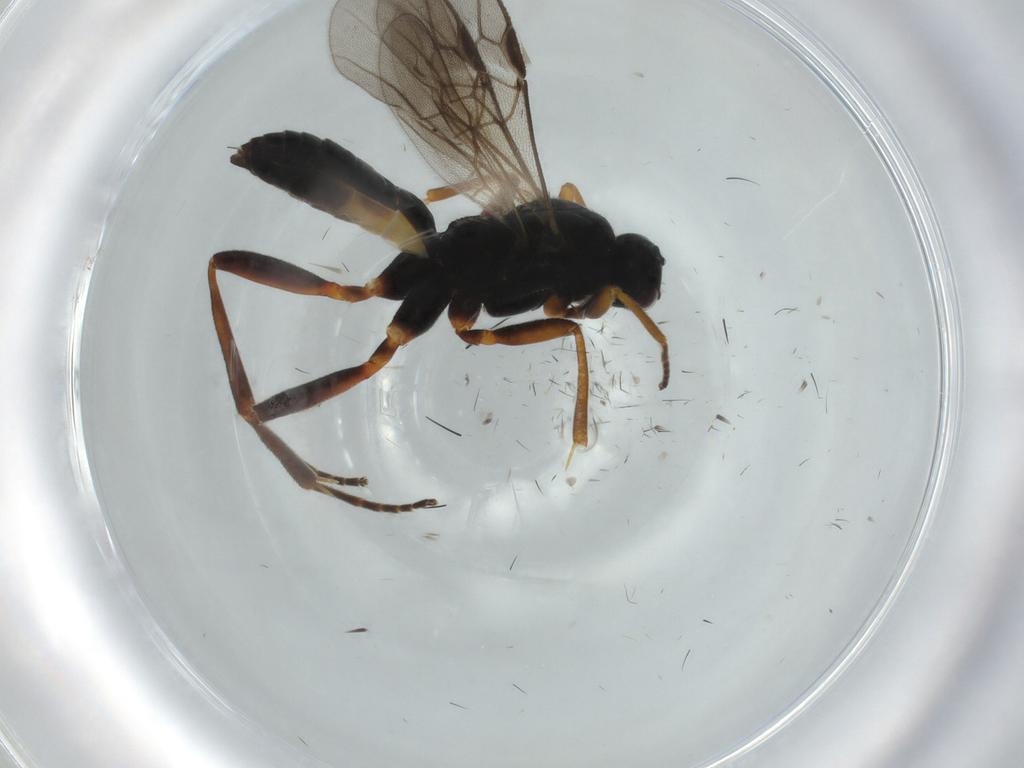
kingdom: Animalia
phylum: Arthropoda
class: Insecta
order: Hymenoptera
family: Braconidae
